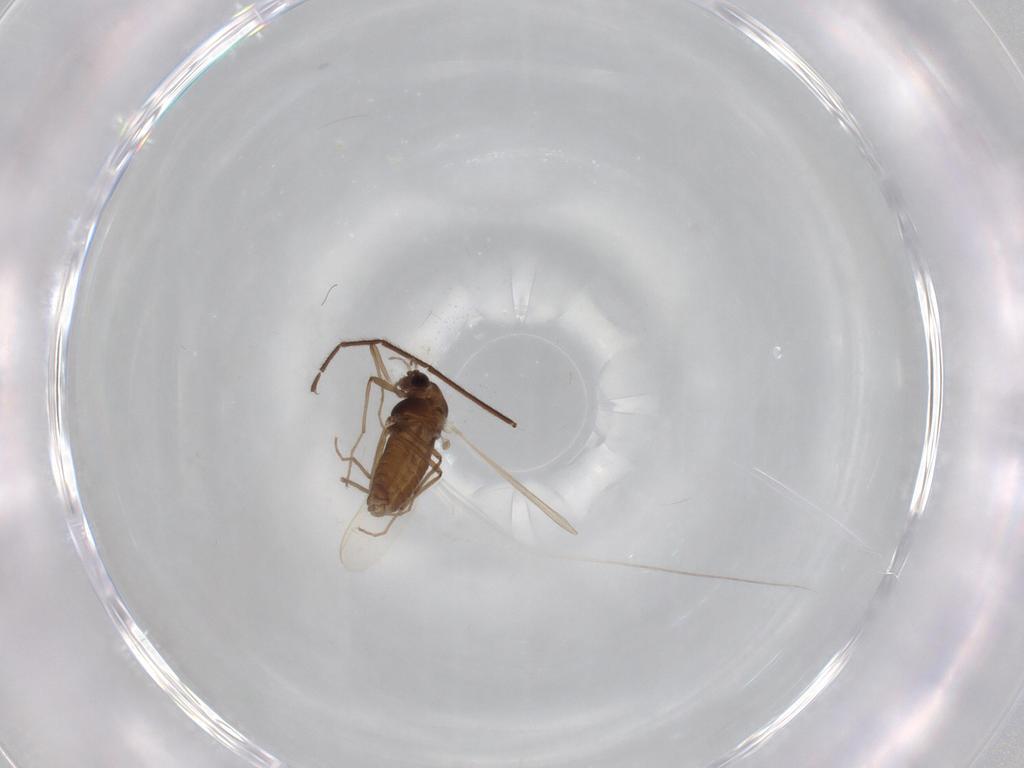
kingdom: Animalia
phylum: Arthropoda
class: Insecta
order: Diptera
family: Chironomidae
